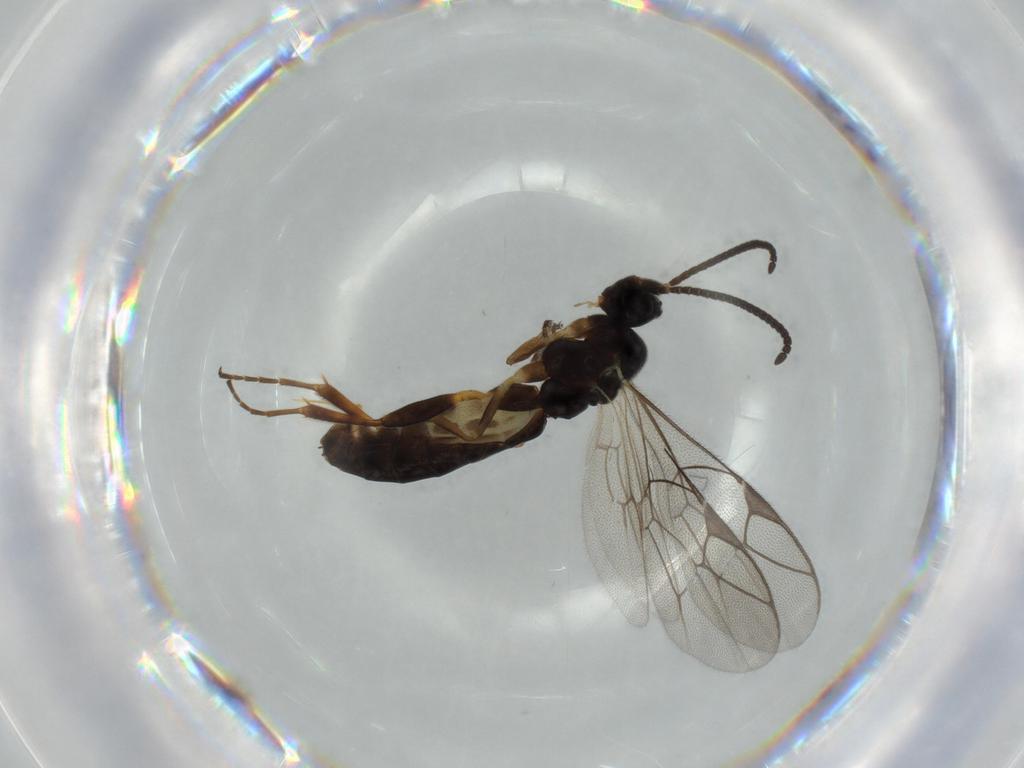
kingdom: Animalia
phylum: Arthropoda
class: Insecta
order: Hymenoptera
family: Ichneumonidae
